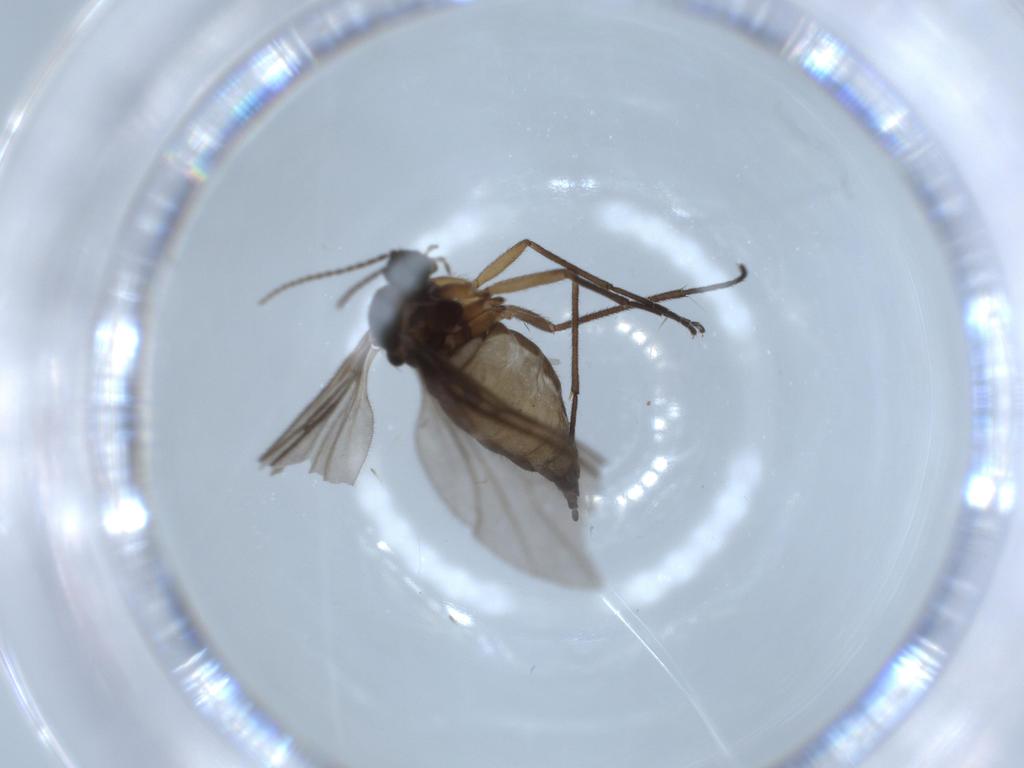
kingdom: Animalia
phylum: Arthropoda
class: Insecta
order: Diptera
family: Sciaridae
